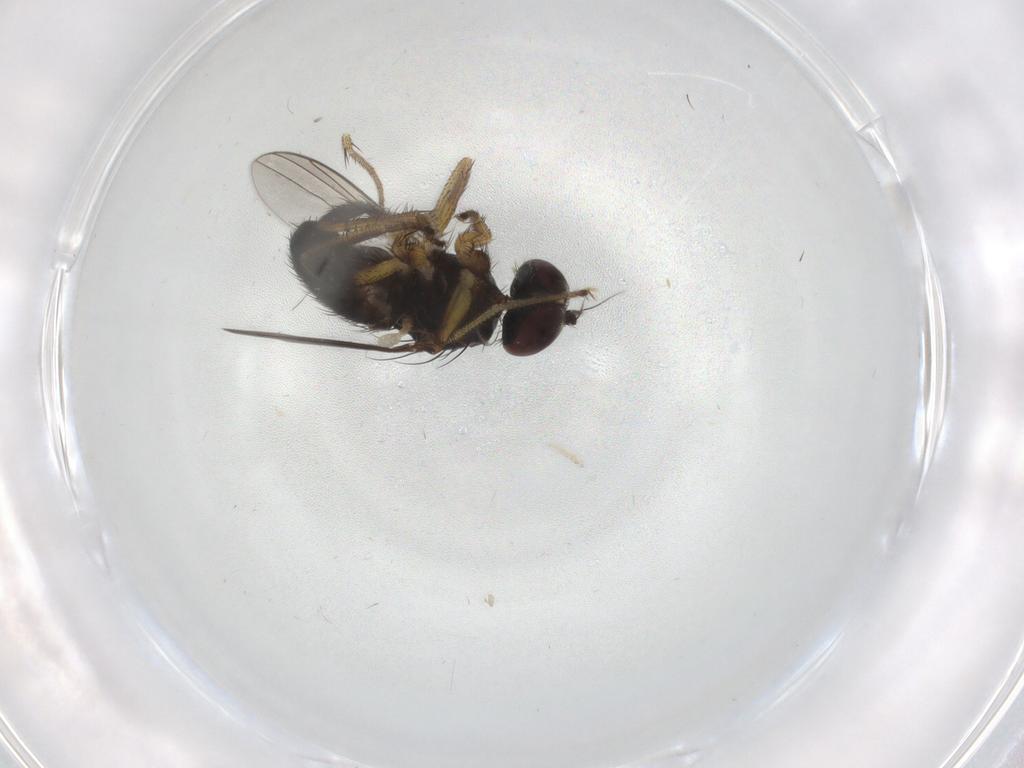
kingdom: Animalia
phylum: Arthropoda
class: Insecta
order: Diptera
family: Dolichopodidae
